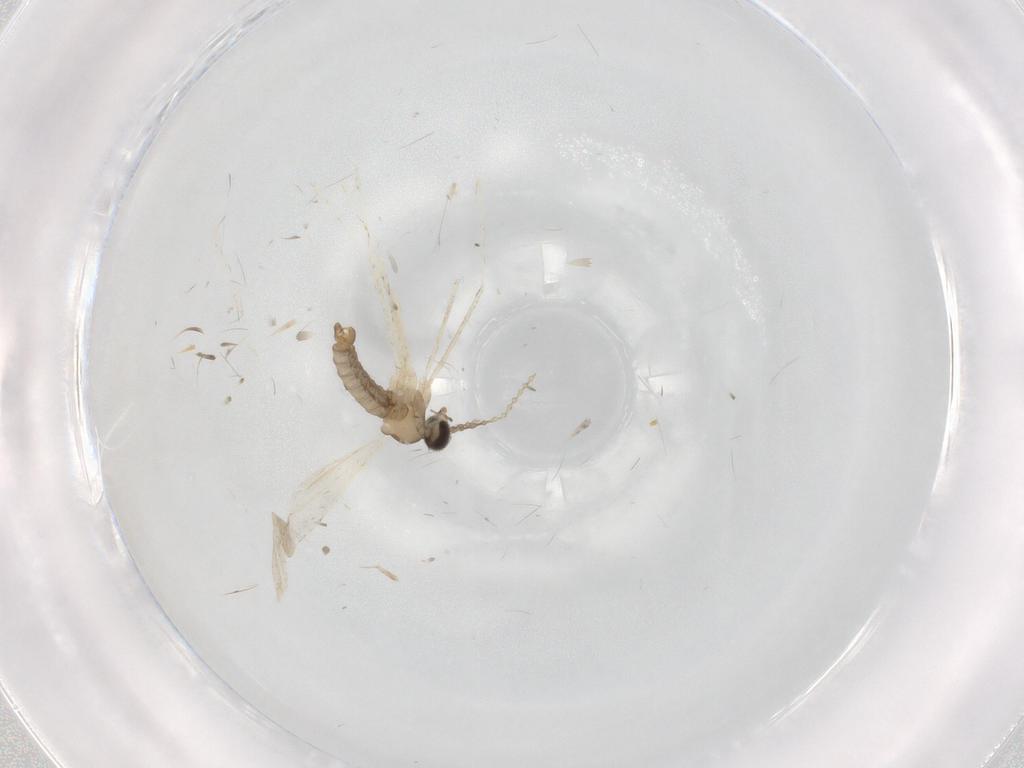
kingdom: Animalia
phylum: Arthropoda
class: Insecta
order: Diptera
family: Cecidomyiidae
